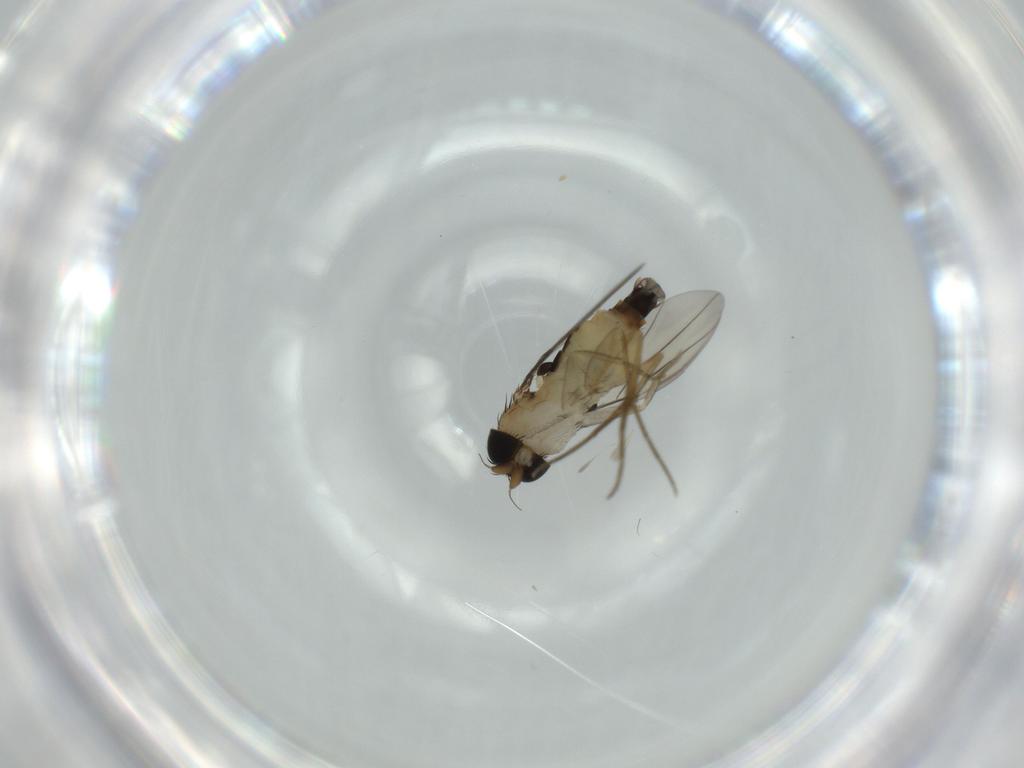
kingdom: Animalia
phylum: Arthropoda
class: Insecta
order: Diptera
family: Phoridae
